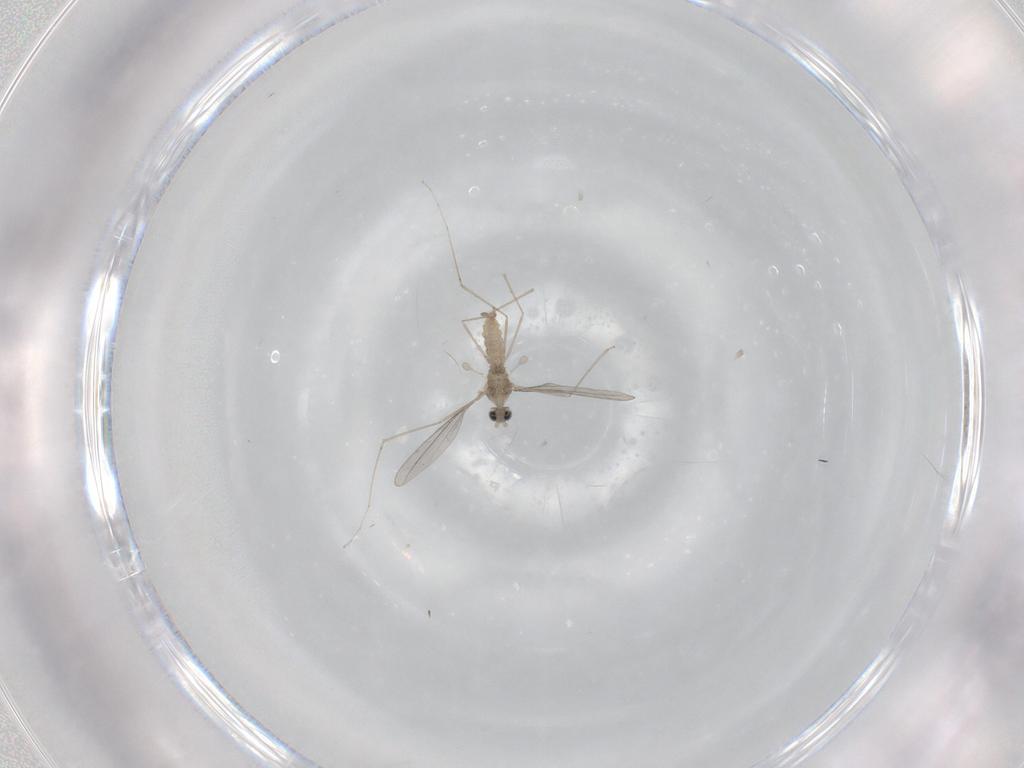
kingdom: Animalia
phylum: Arthropoda
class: Insecta
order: Diptera
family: Cecidomyiidae
